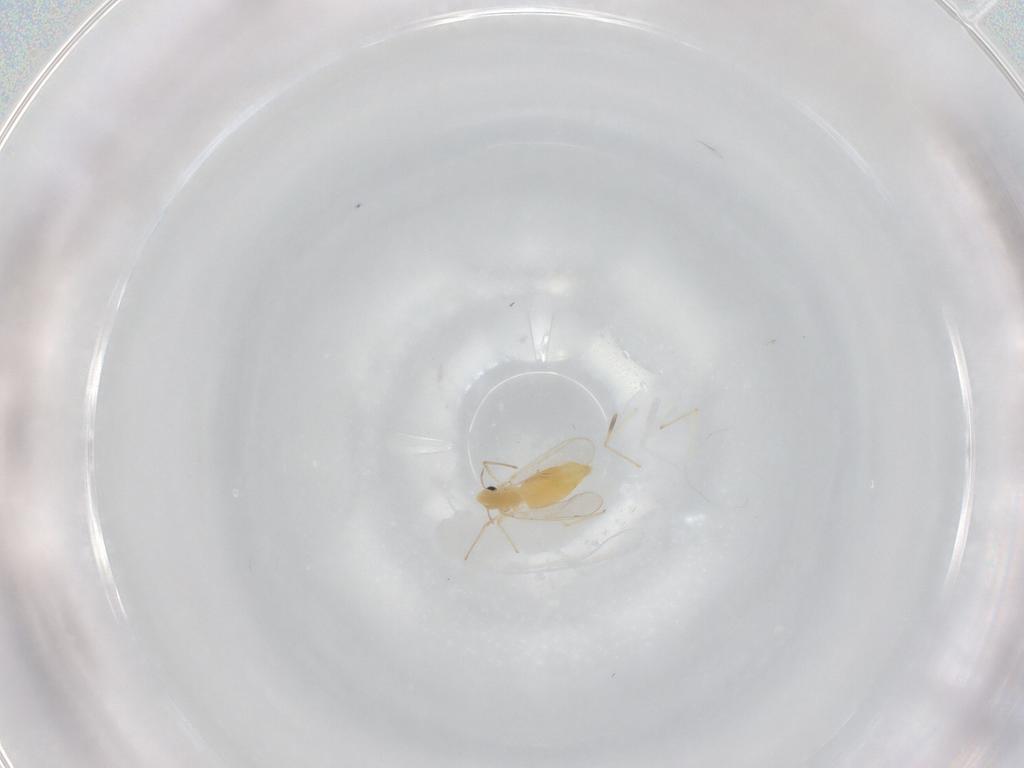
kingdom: Animalia
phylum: Arthropoda
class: Insecta
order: Diptera
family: Chironomidae
